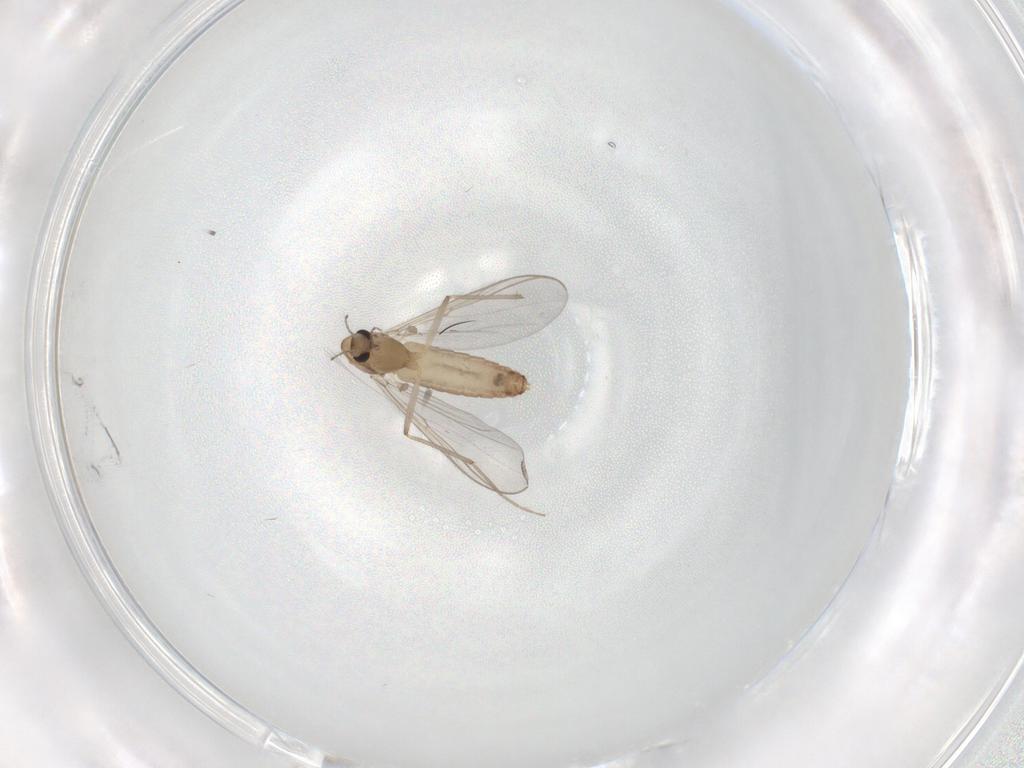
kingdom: Animalia
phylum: Arthropoda
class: Insecta
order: Diptera
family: Chironomidae
